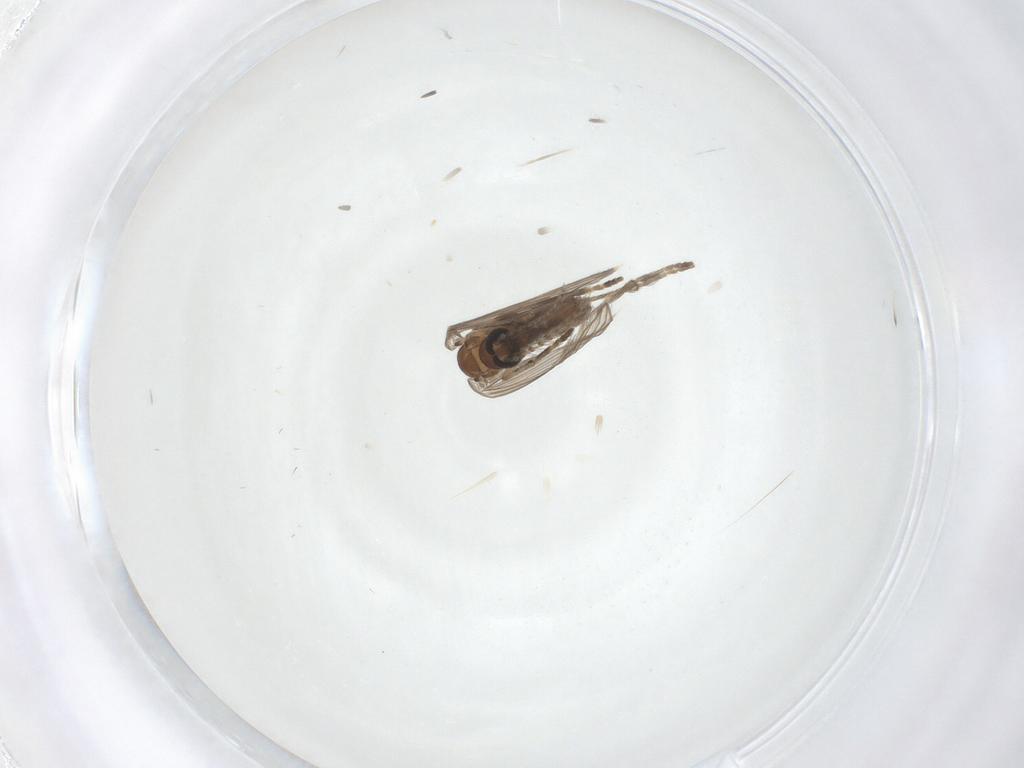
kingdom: Animalia
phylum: Arthropoda
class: Insecta
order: Diptera
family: Psychodidae
